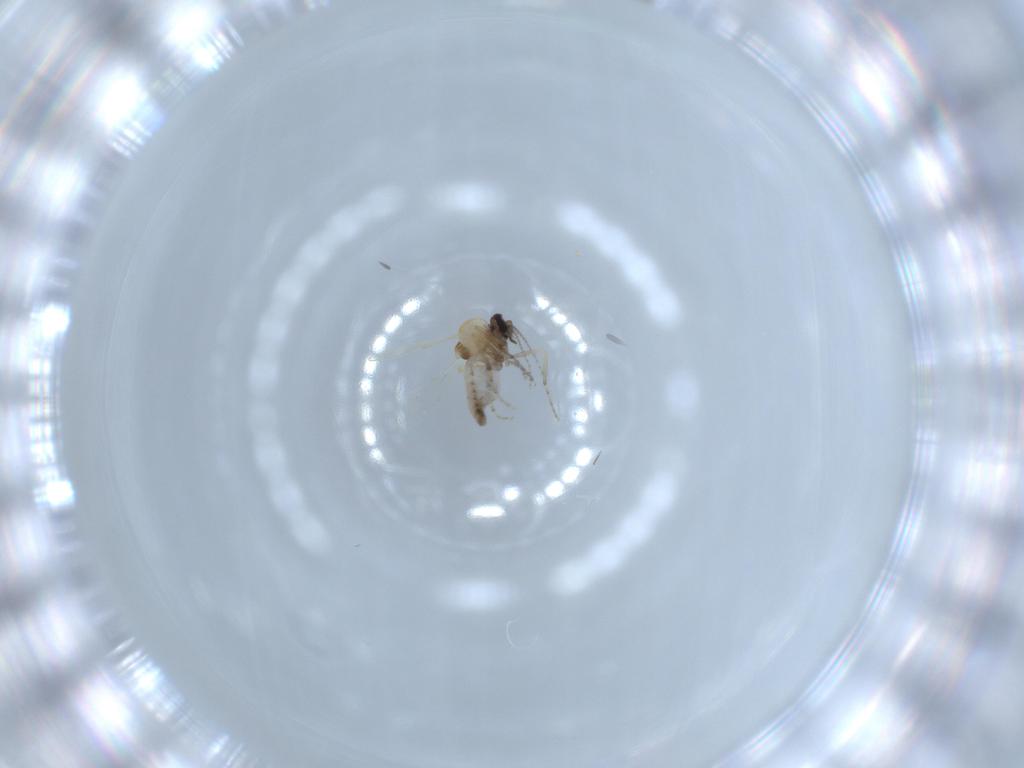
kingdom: Animalia
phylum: Arthropoda
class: Insecta
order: Diptera
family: Ceratopogonidae
